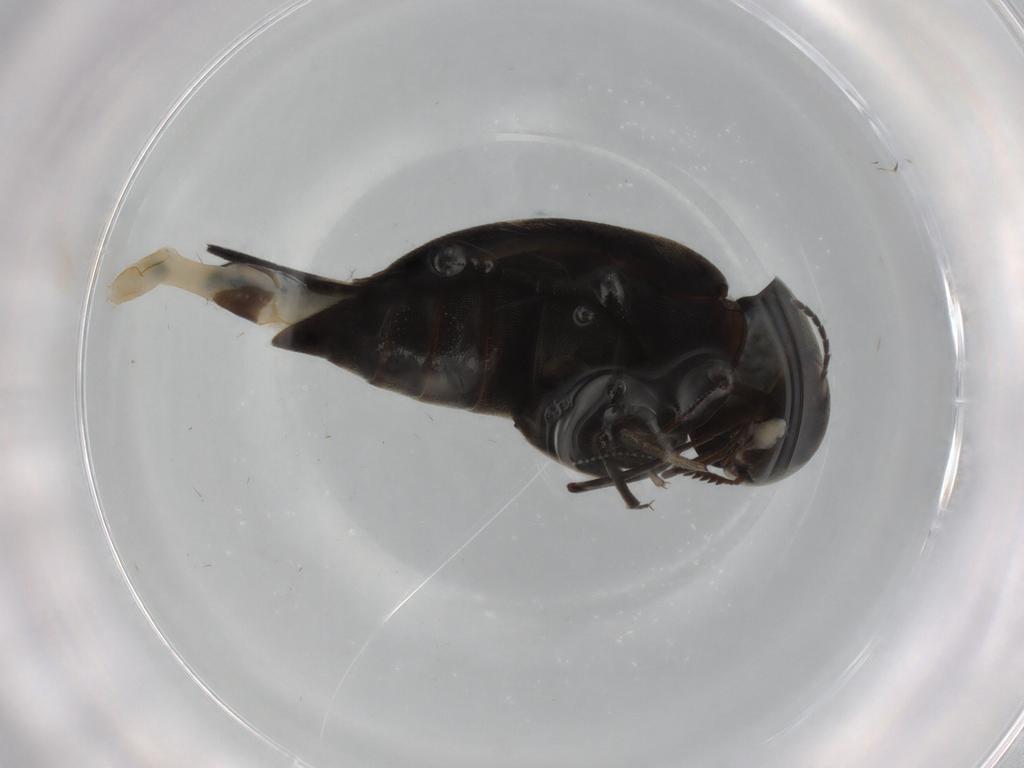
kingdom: Animalia
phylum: Arthropoda
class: Insecta
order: Coleoptera
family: Mordellidae
